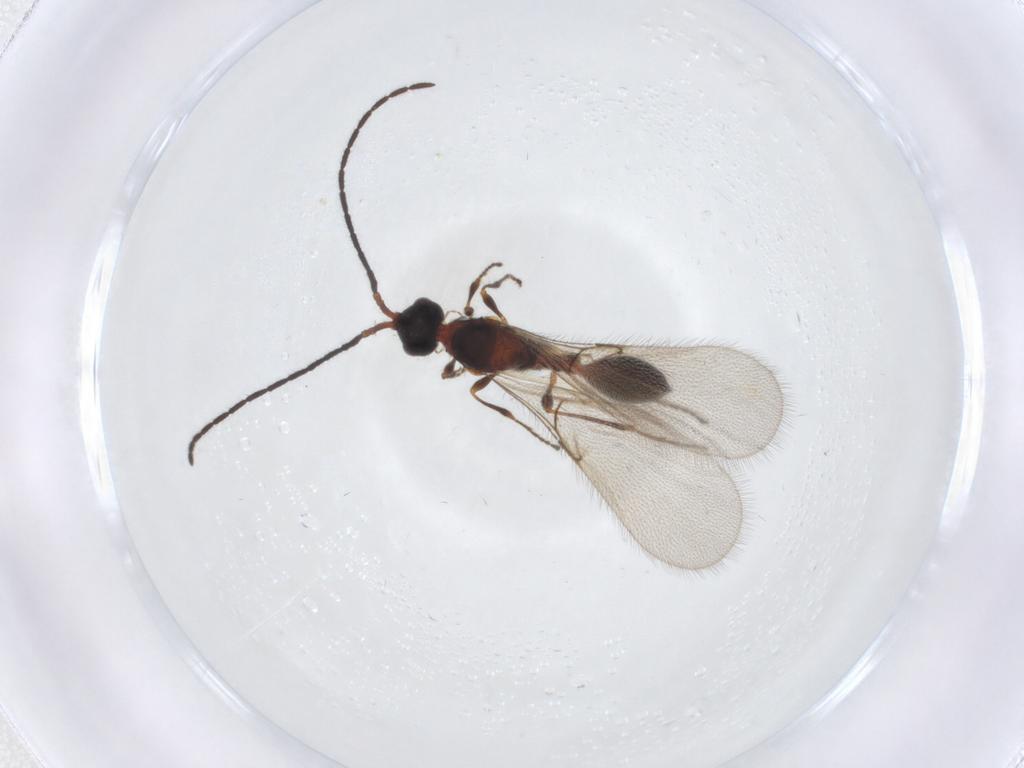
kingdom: Animalia
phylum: Arthropoda
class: Insecta
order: Hymenoptera
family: Diapriidae
